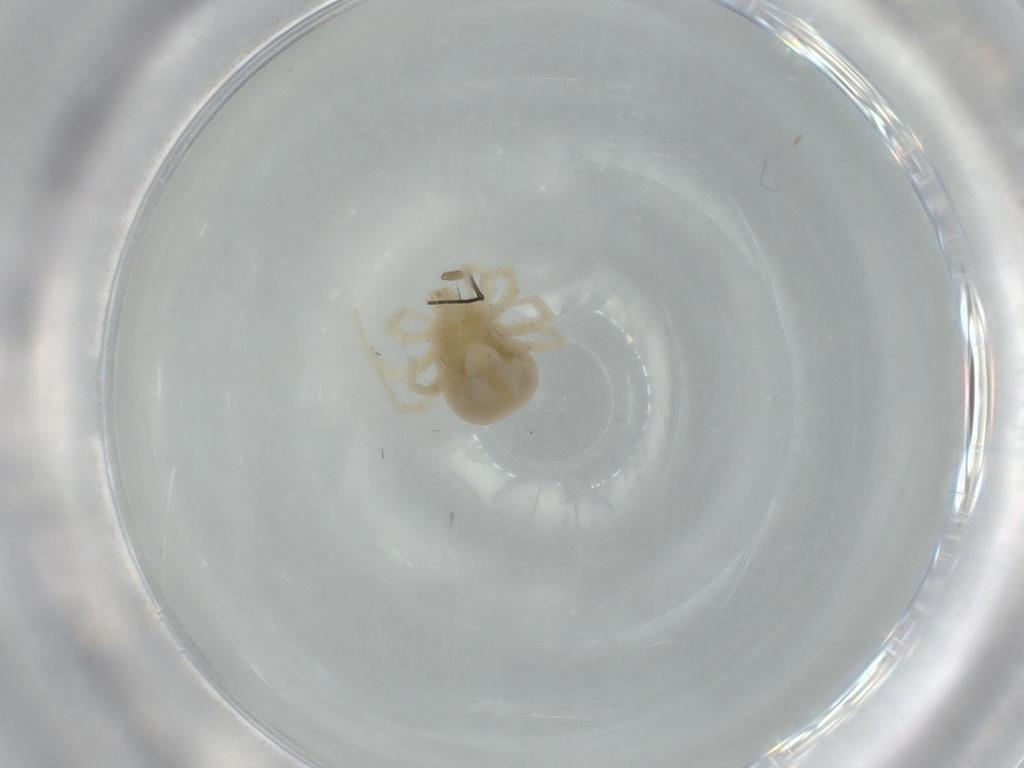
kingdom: Animalia
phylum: Arthropoda
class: Arachnida
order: Trombidiformes
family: Anystidae
